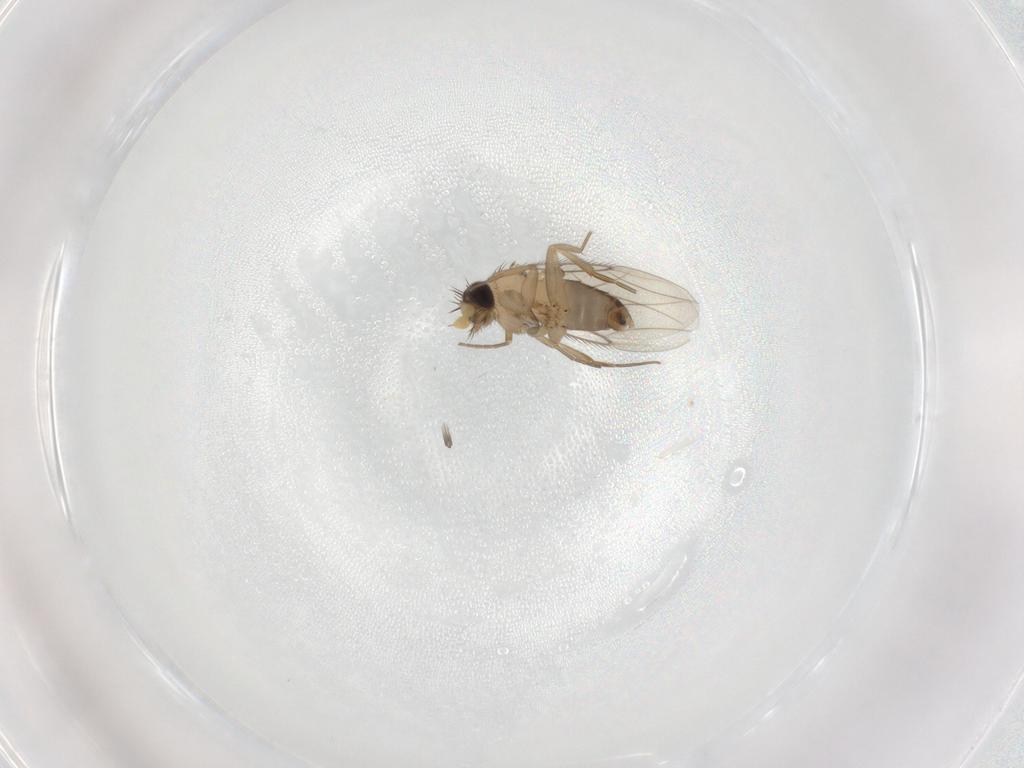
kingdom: Animalia
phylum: Arthropoda
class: Insecta
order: Diptera
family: Phoridae
